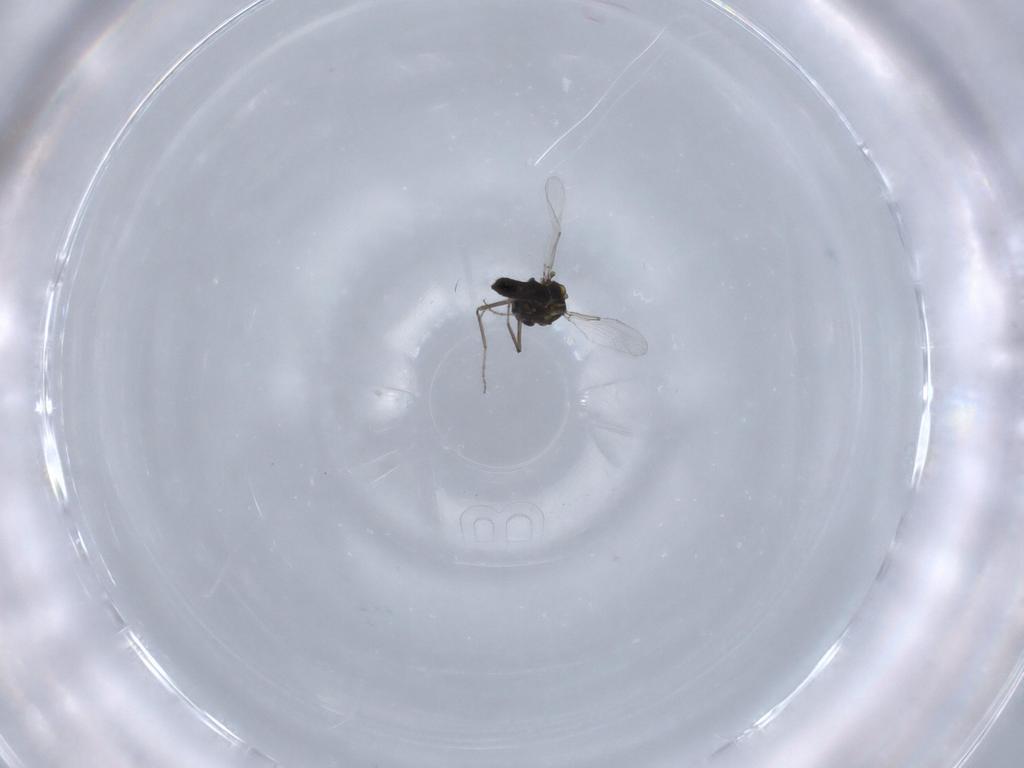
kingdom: Animalia
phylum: Arthropoda
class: Insecta
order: Diptera
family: Ceratopogonidae
